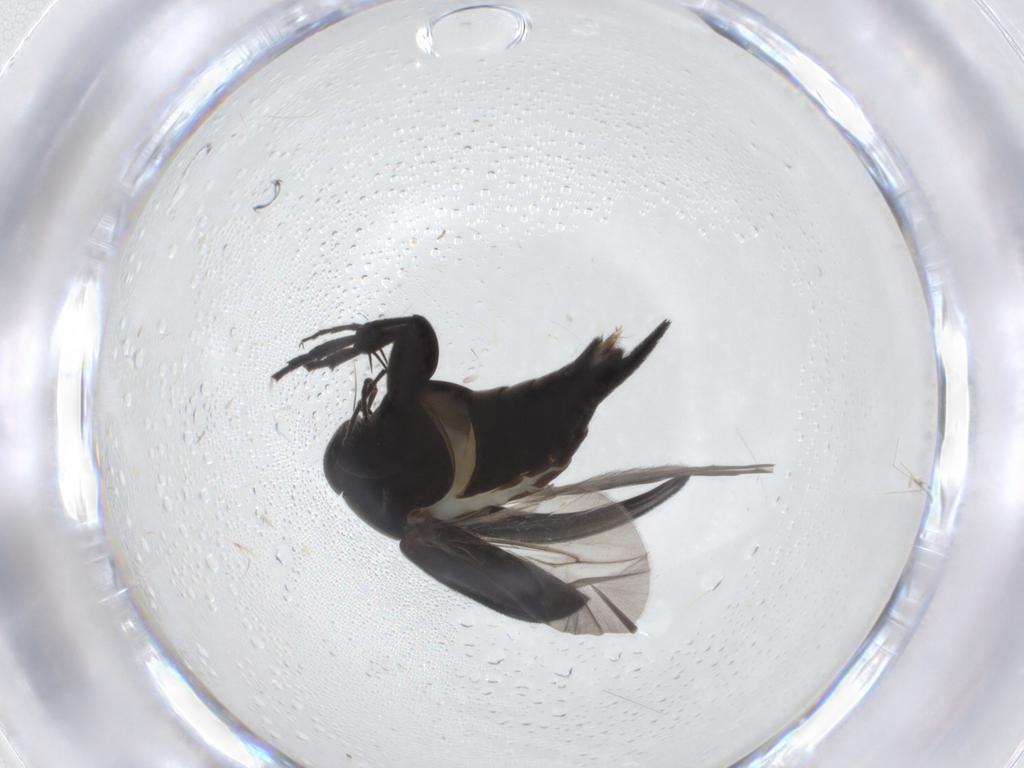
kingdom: Animalia
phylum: Arthropoda
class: Insecta
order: Coleoptera
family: Mordellidae
